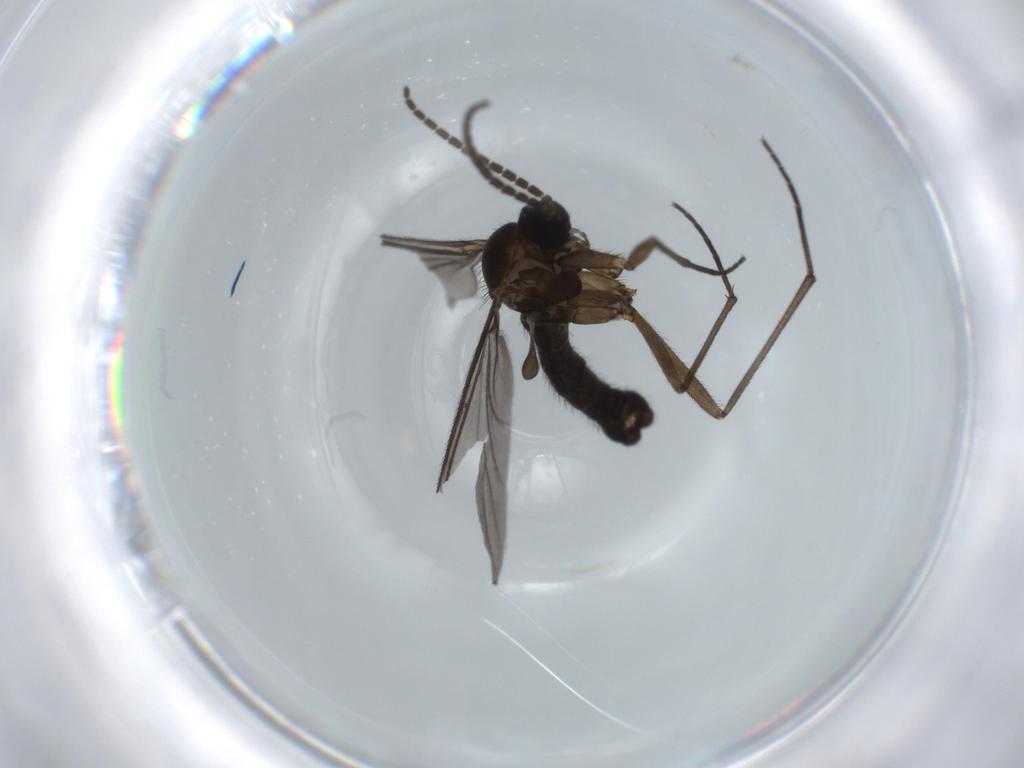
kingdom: Animalia
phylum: Arthropoda
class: Insecta
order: Diptera
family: Sciaridae
